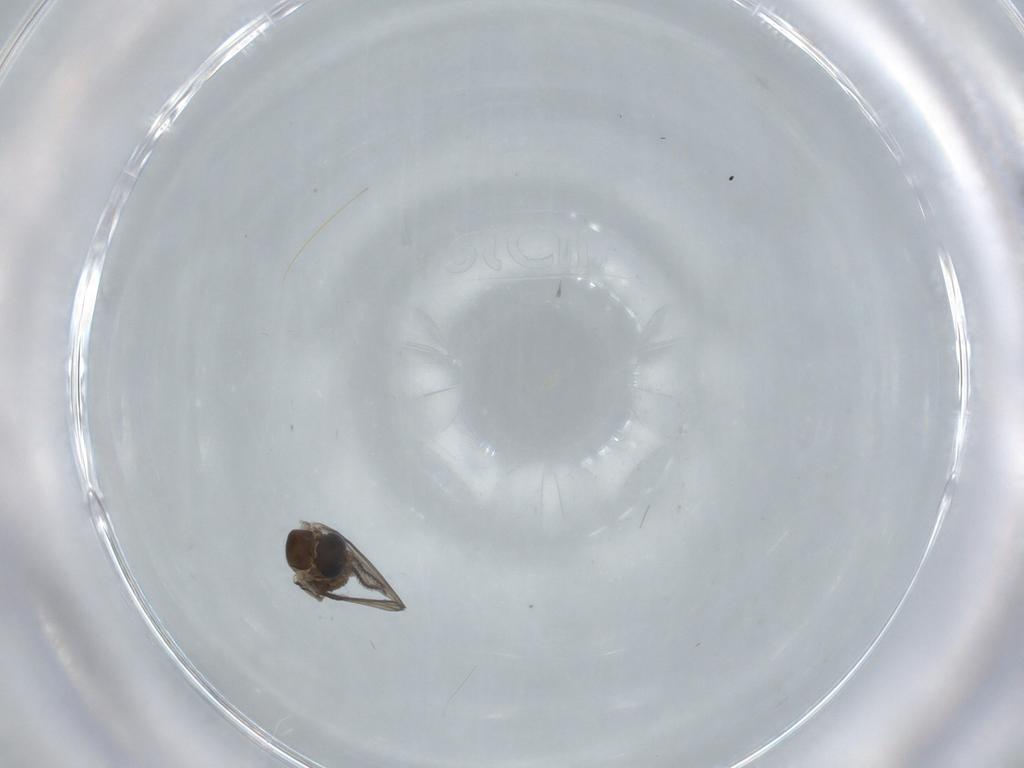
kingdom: Animalia
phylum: Arthropoda
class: Insecta
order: Diptera
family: Psychodidae
